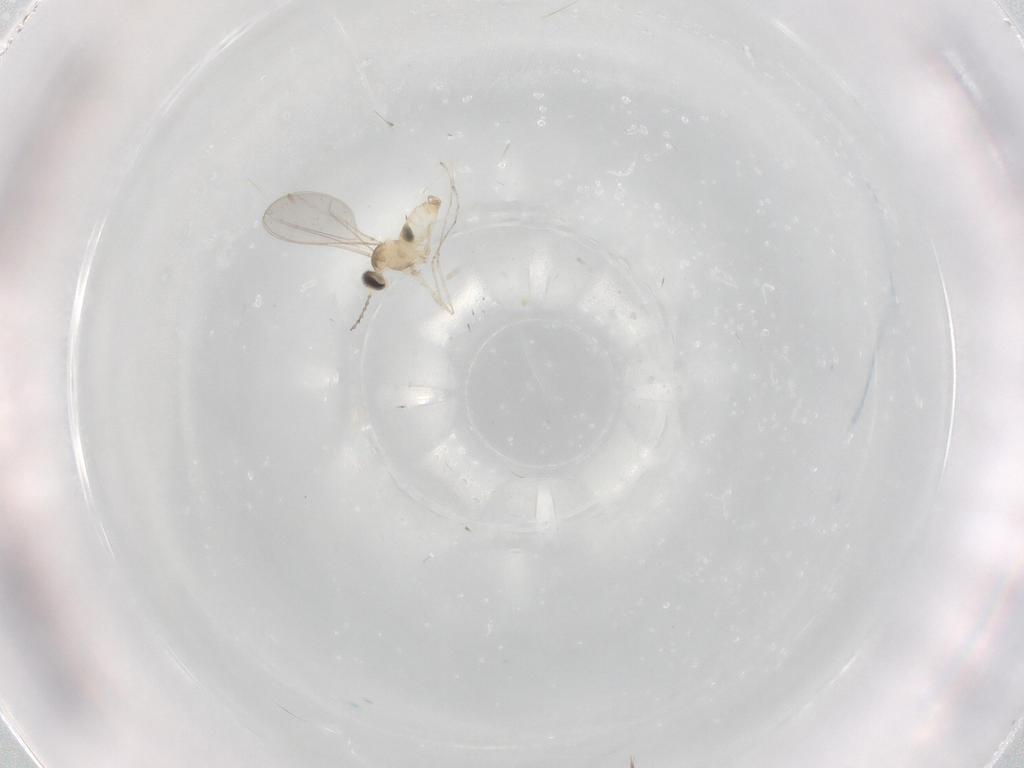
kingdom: Animalia
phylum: Arthropoda
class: Insecta
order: Diptera
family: Cecidomyiidae
